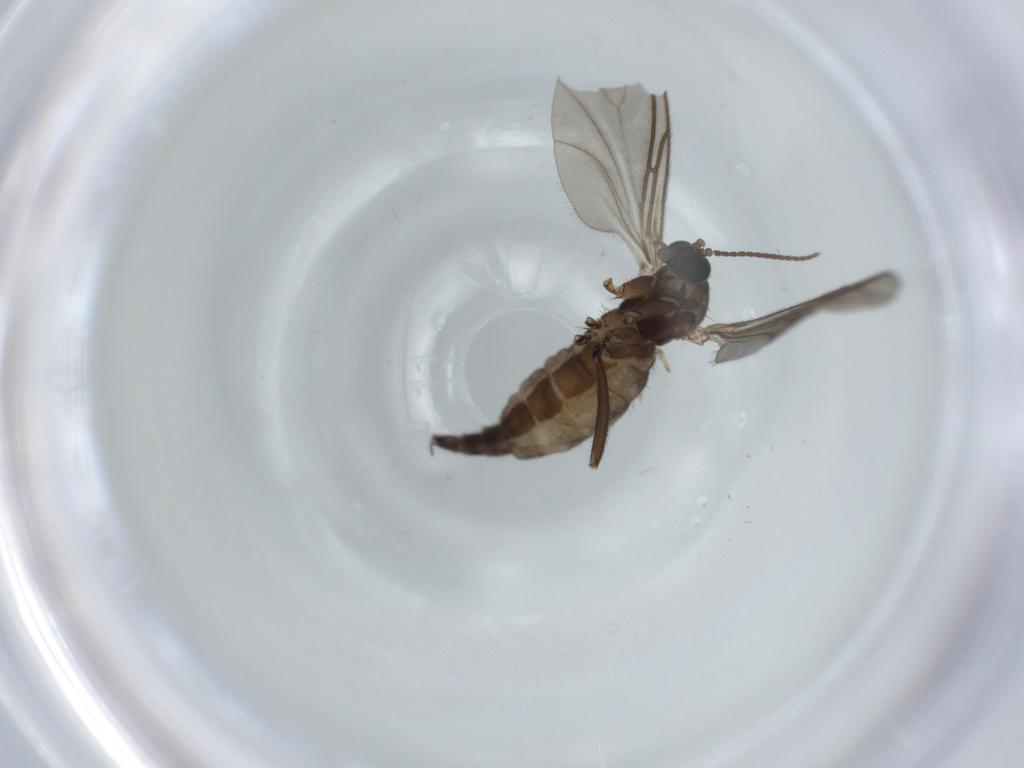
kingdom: Animalia
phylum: Arthropoda
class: Insecta
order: Diptera
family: Sciaridae
